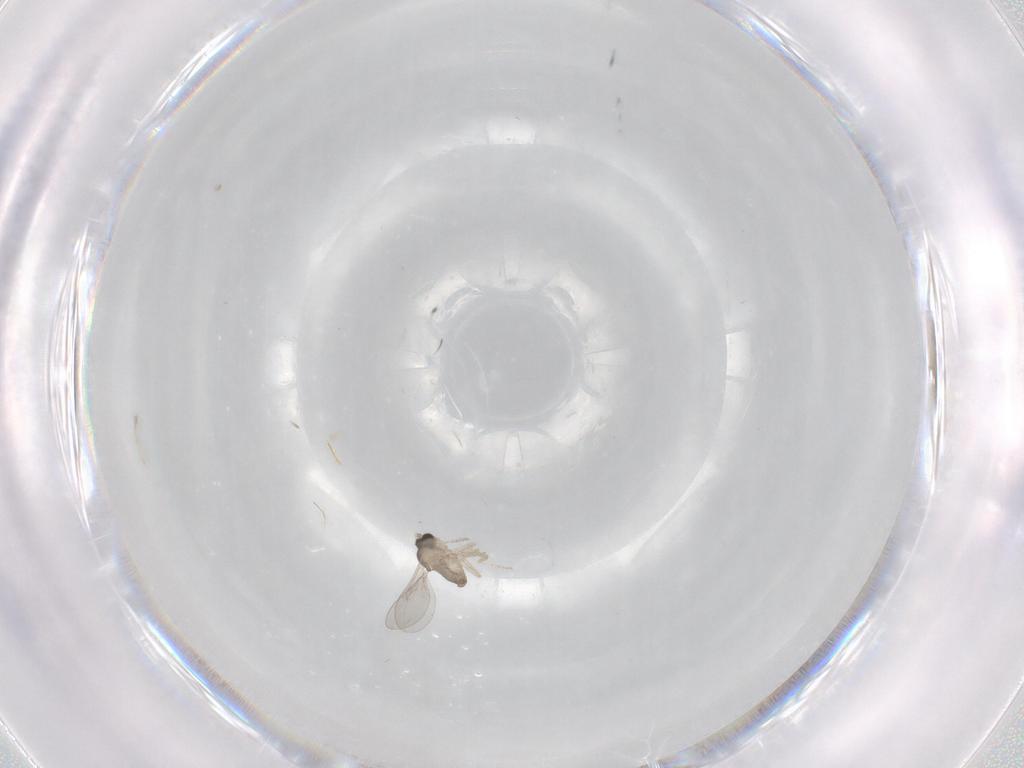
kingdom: Animalia
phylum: Arthropoda
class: Insecta
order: Diptera
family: Cecidomyiidae
